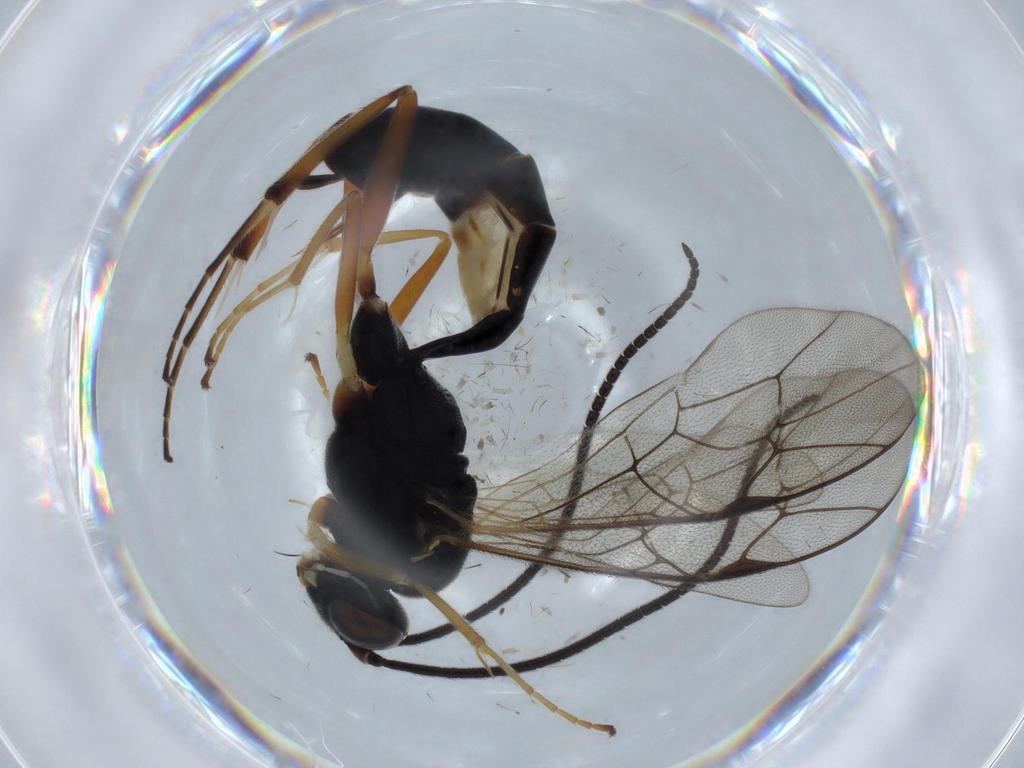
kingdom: Animalia
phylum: Arthropoda
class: Insecta
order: Hymenoptera
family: Ichneumonidae
